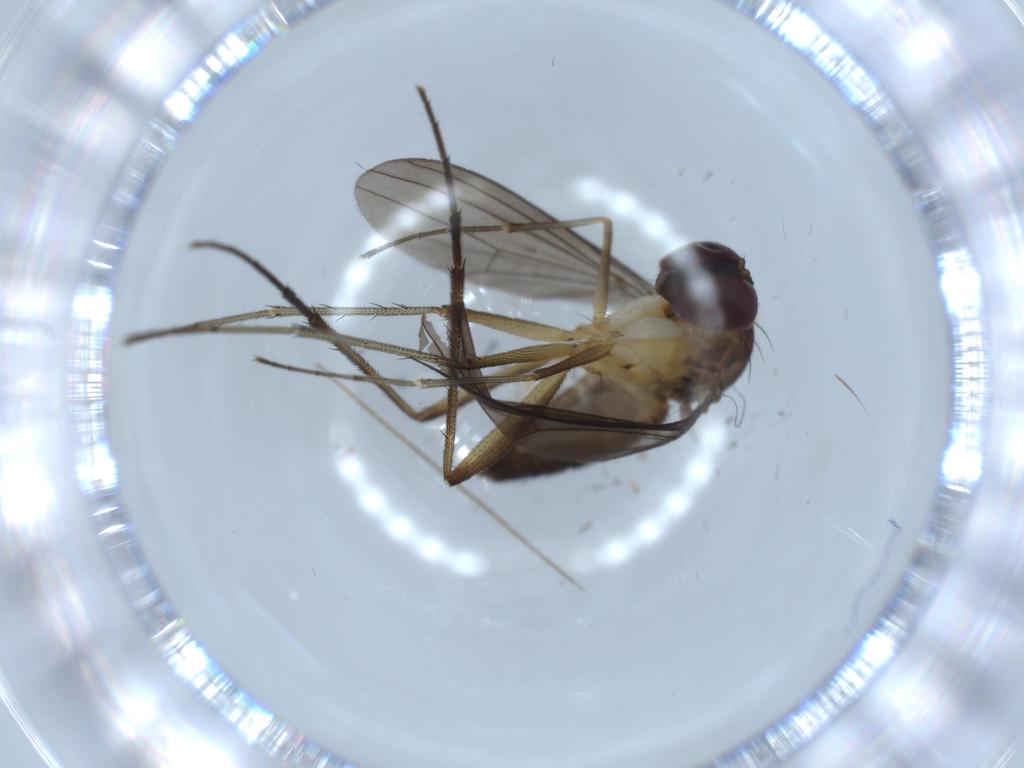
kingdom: Animalia
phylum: Arthropoda
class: Insecta
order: Diptera
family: Dolichopodidae
